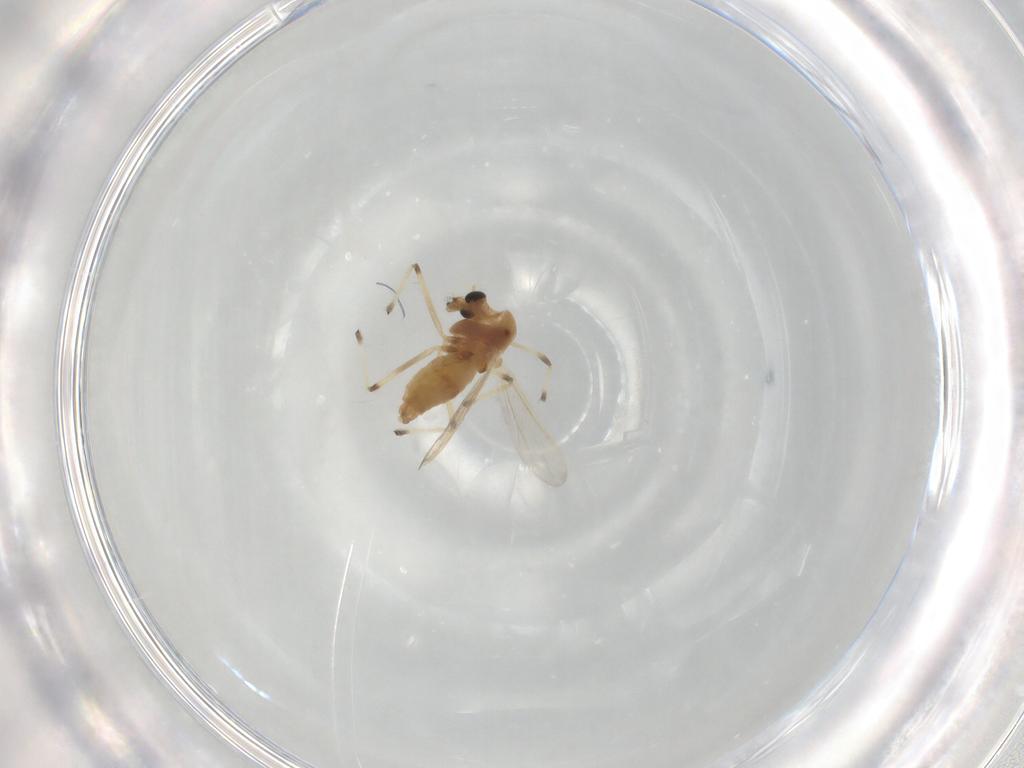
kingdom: Animalia
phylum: Arthropoda
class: Insecta
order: Diptera
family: Chironomidae
